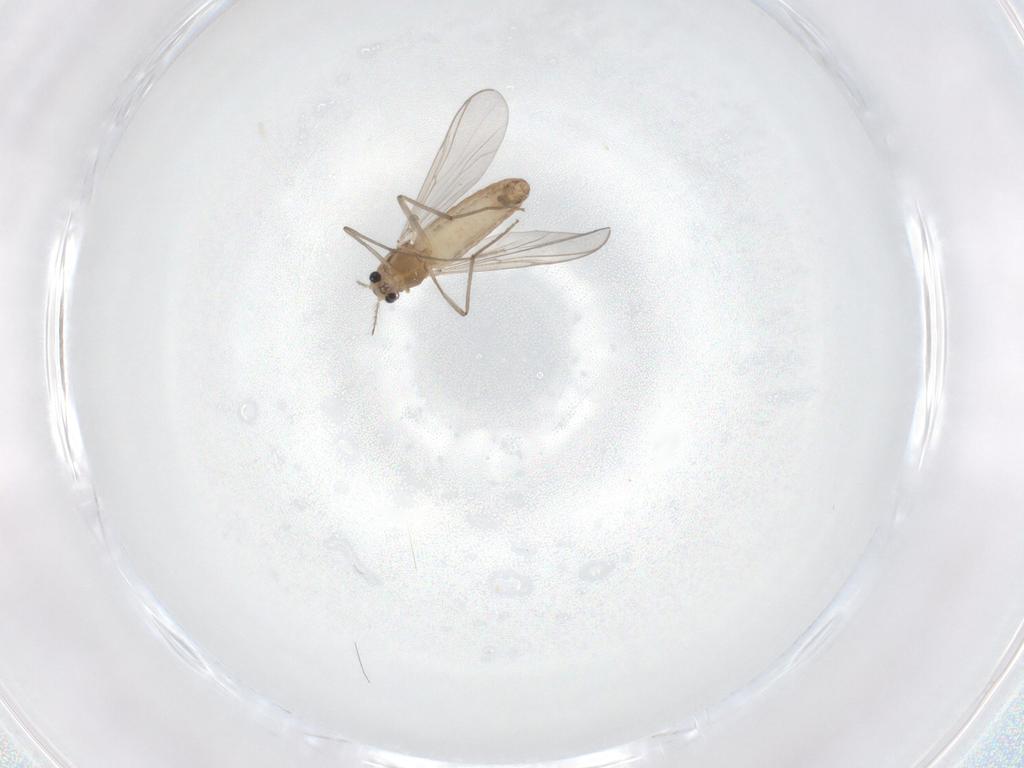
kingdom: Animalia
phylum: Arthropoda
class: Insecta
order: Diptera
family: Chironomidae
